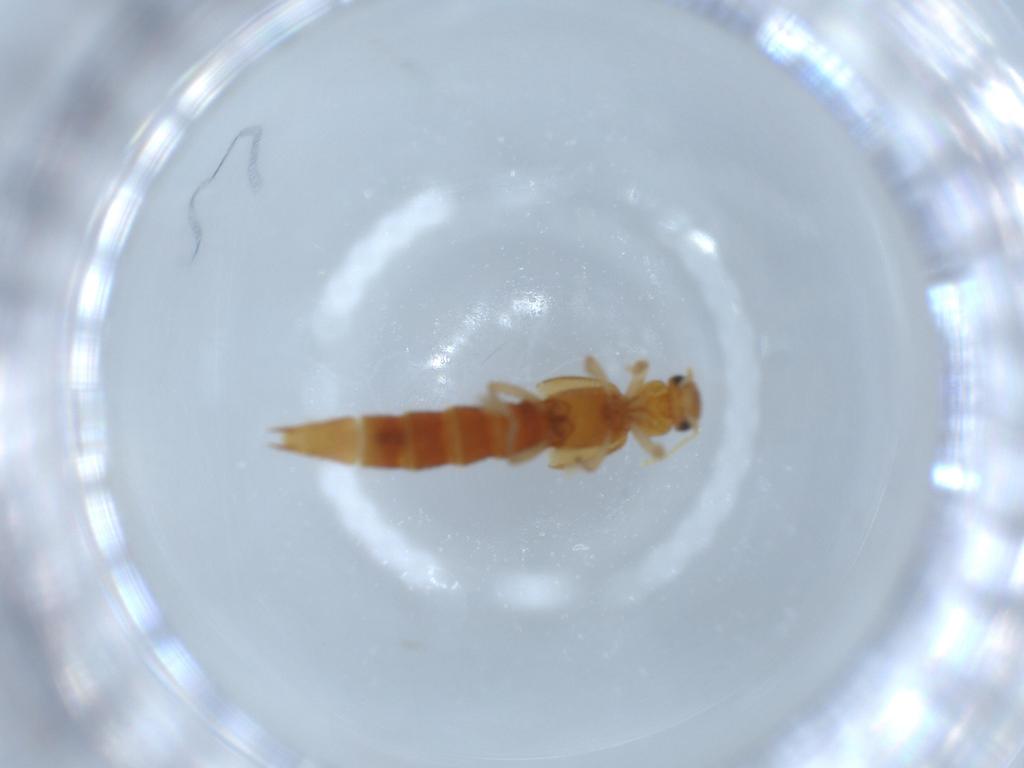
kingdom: Animalia
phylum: Arthropoda
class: Insecta
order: Coleoptera
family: Staphylinidae
